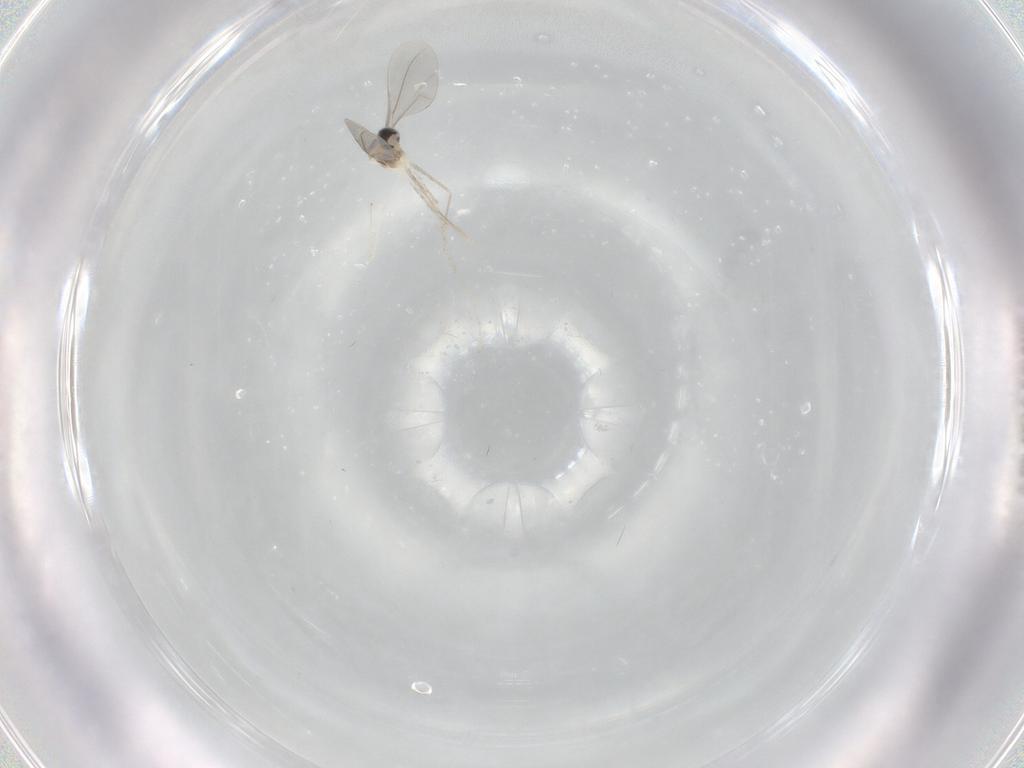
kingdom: Animalia
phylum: Arthropoda
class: Insecta
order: Diptera
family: Cecidomyiidae
